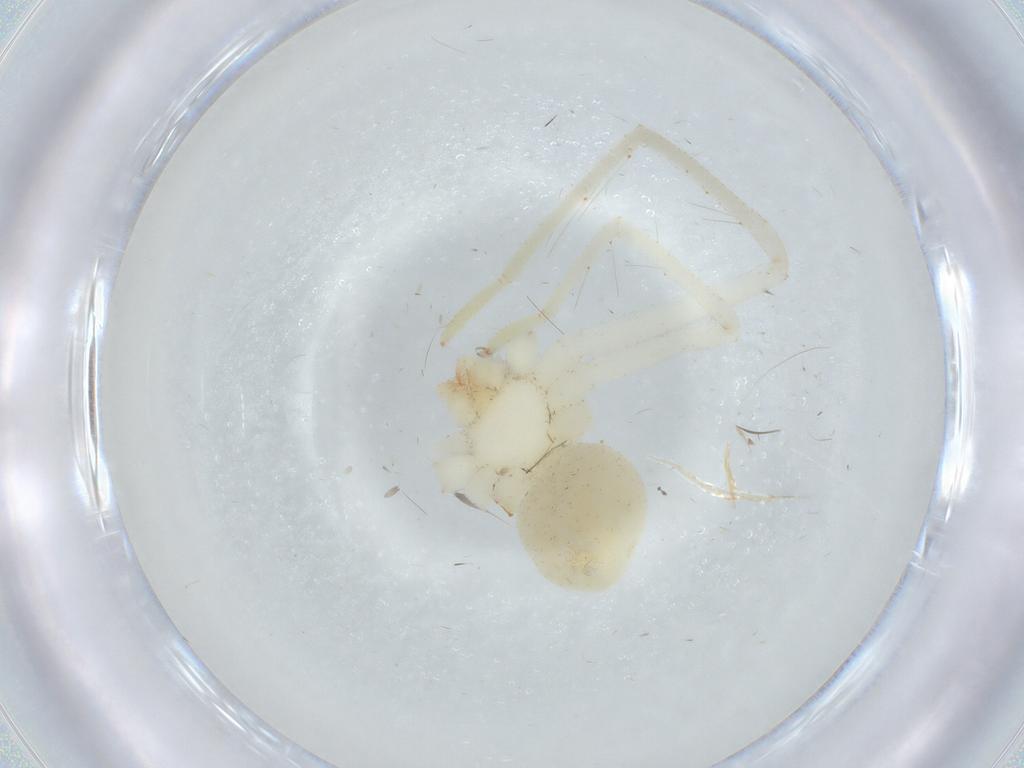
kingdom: Animalia
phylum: Arthropoda
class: Arachnida
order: Araneae
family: Sparassidae
